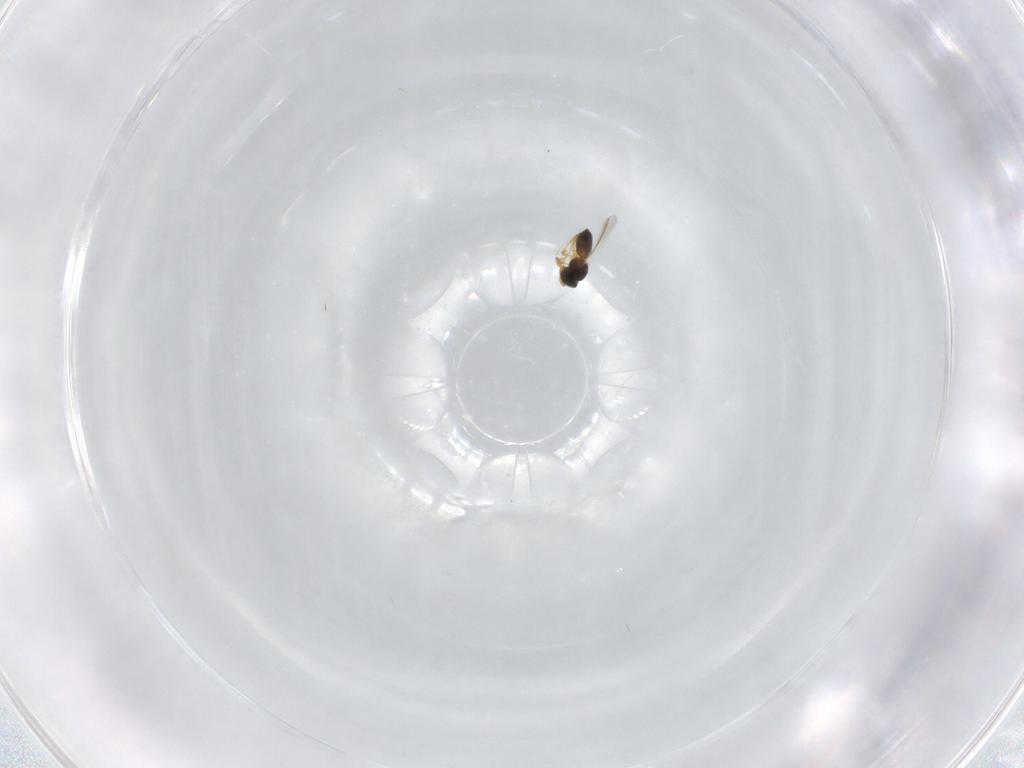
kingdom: Animalia
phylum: Arthropoda
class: Insecta
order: Hymenoptera
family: Platygastridae
